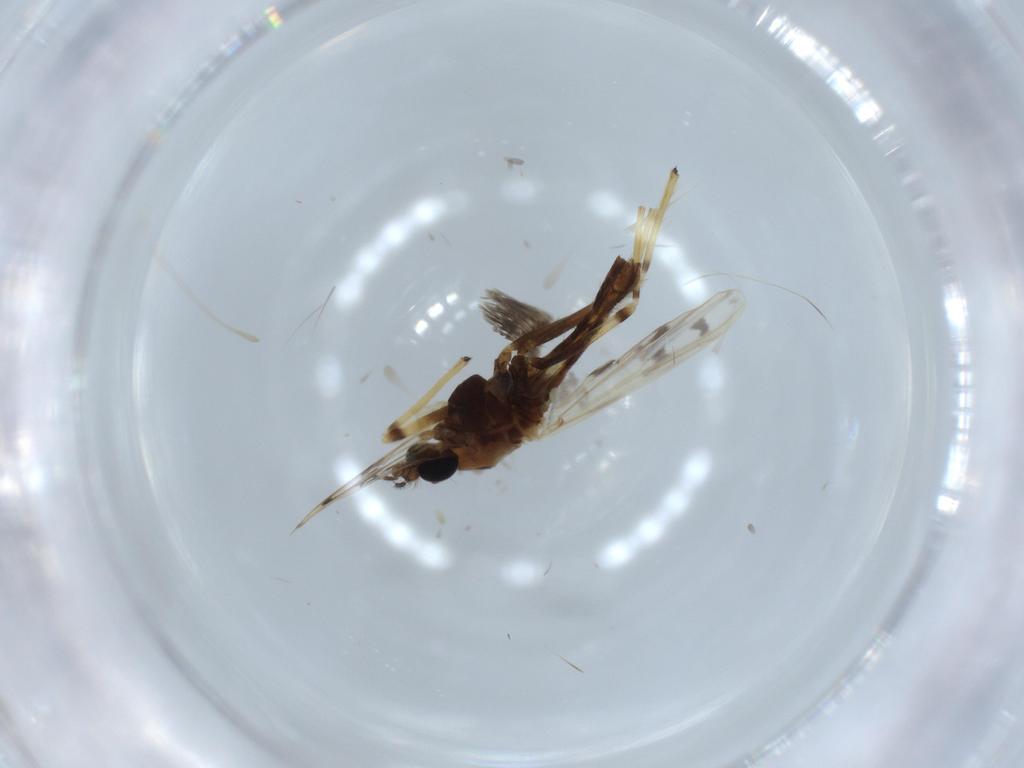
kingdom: Animalia
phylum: Arthropoda
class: Insecta
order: Diptera
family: Chironomidae
